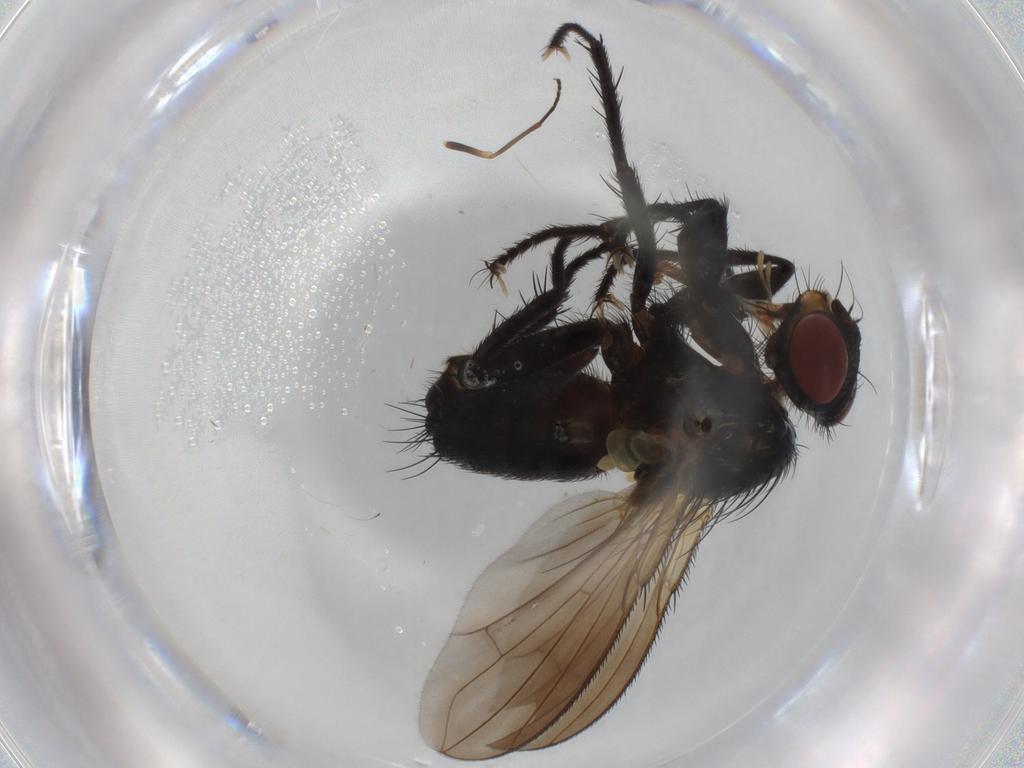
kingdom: Animalia
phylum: Arthropoda
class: Insecta
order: Diptera
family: Calliphoridae
